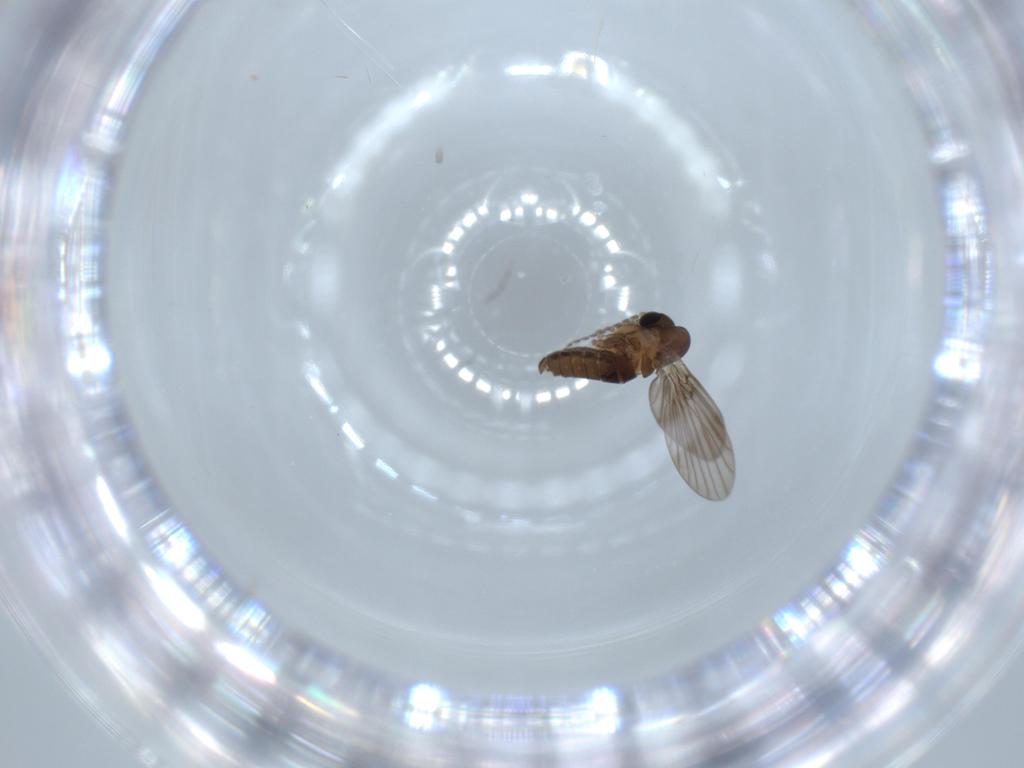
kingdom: Animalia
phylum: Arthropoda
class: Insecta
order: Diptera
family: Psychodidae
